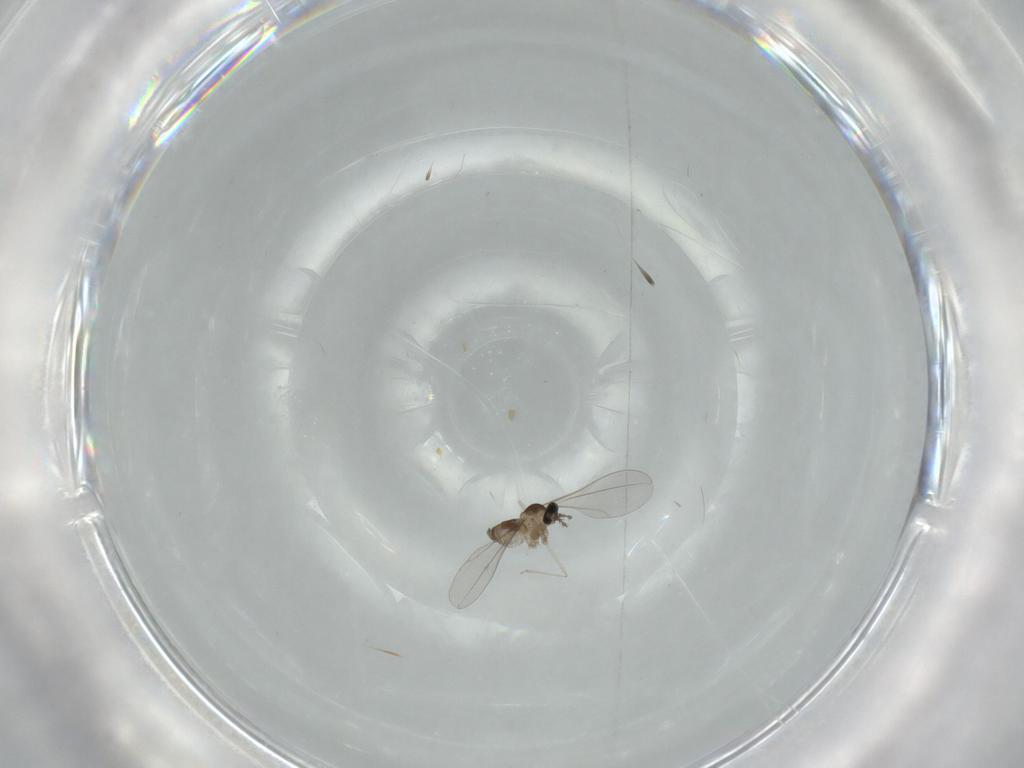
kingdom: Animalia
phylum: Arthropoda
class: Insecta
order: Diptera
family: Cecidomyiidae
